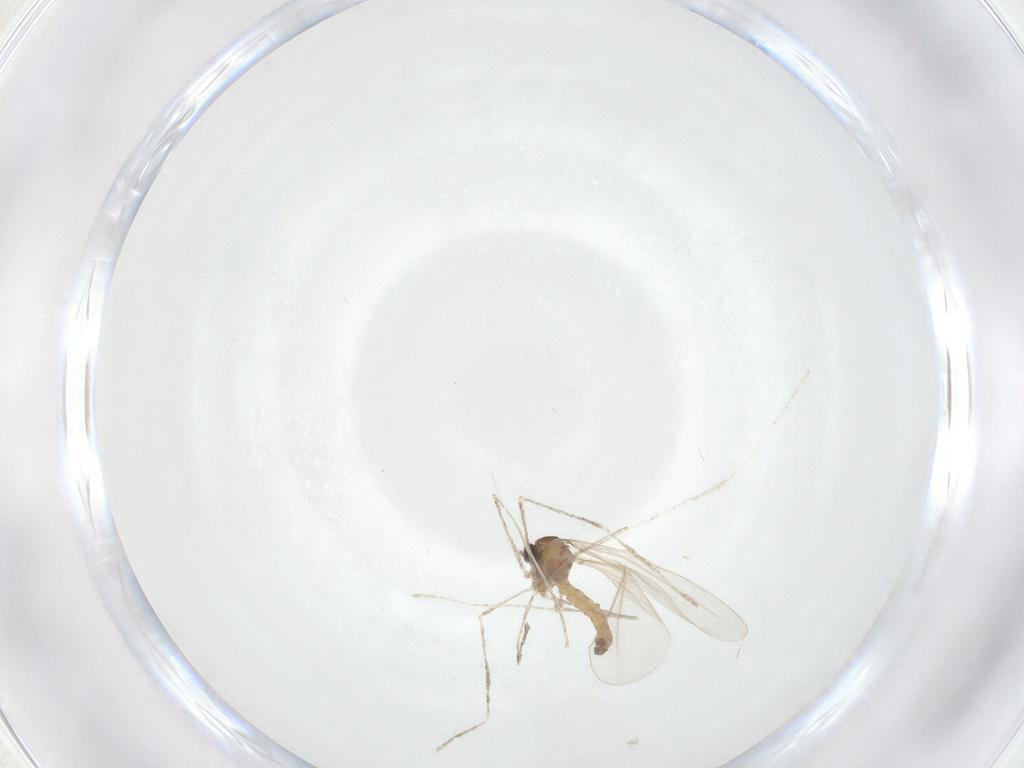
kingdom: Animalia
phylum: Arthropoda
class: Insecta
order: Diptera
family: Cecidomyiidae
